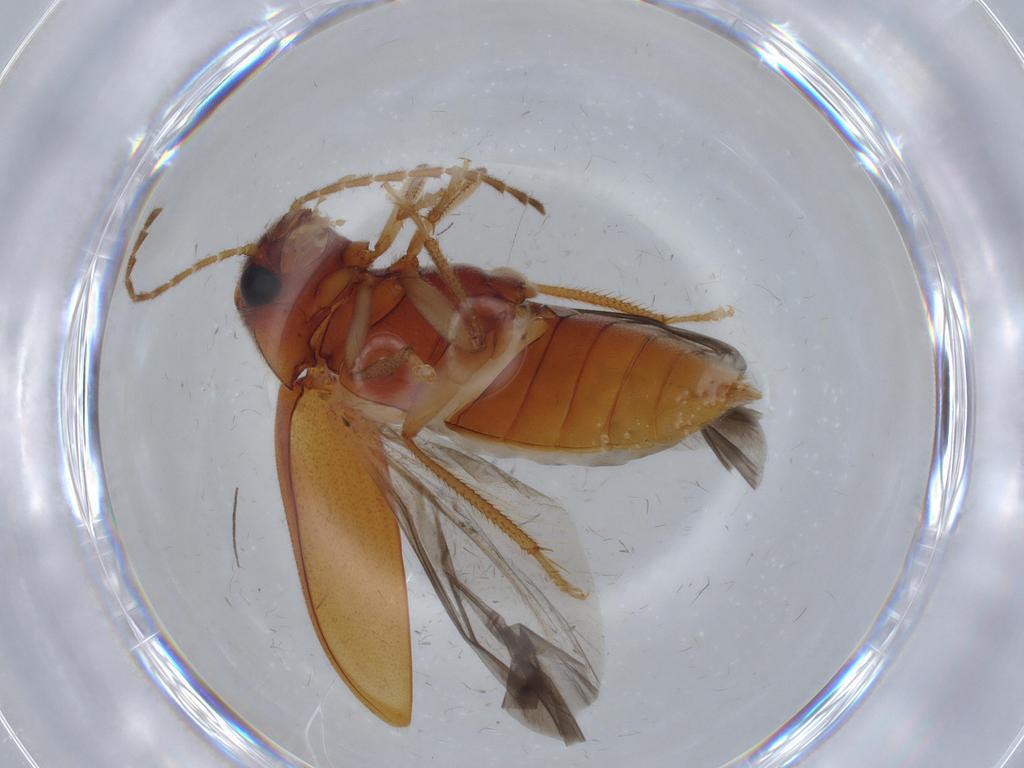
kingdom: Animalia
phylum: Arthropoda
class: Insecta
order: Coleoptera
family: Ptilodactylidae
